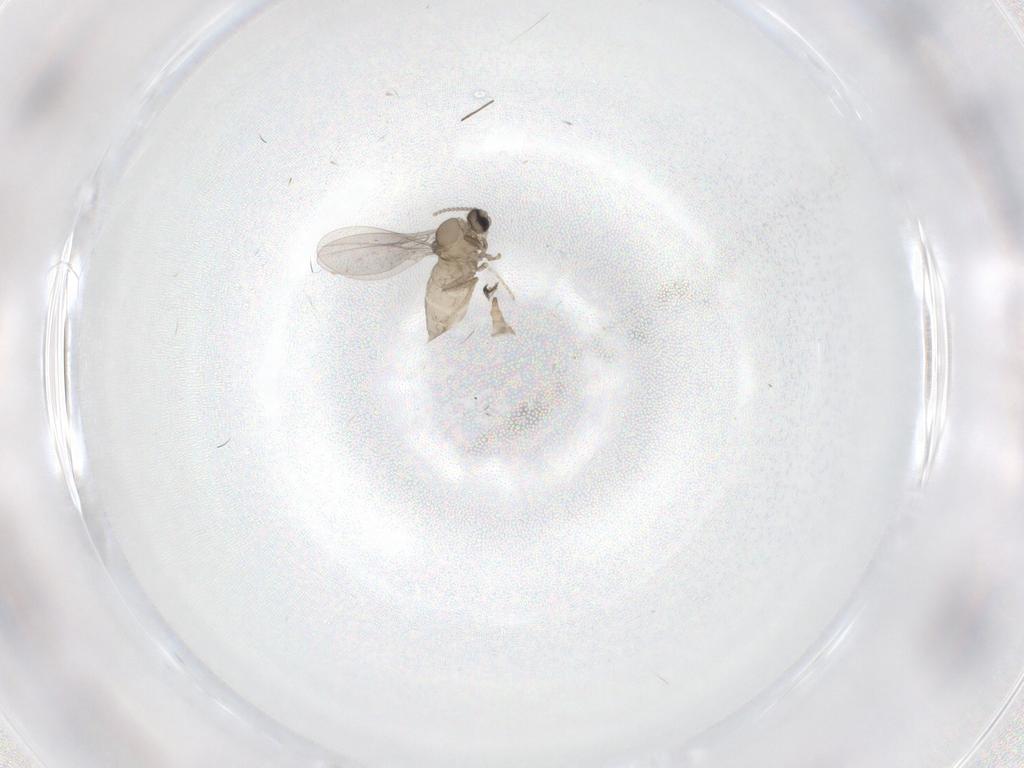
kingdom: Animalia
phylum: Arthropoda
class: Insecta
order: Diptera
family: Cecidomyiidae
